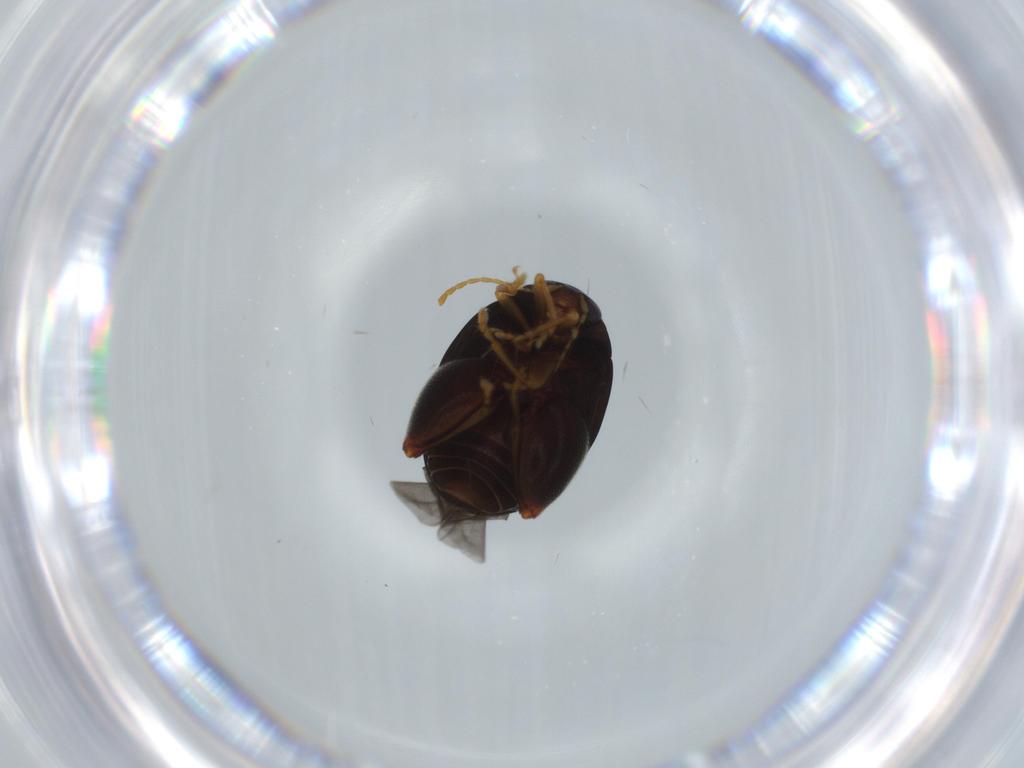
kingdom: Animalia
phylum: Arthropoda
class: Insecta
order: Coleoptera
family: Chrysomelidae
